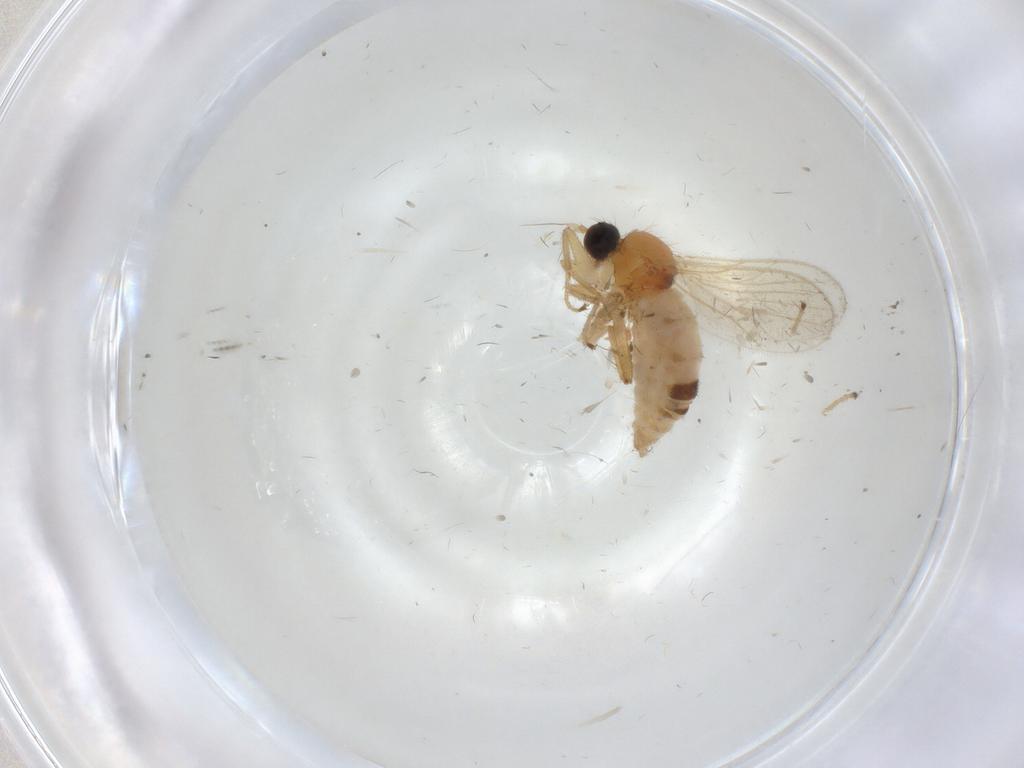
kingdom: Animalia
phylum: Arthropoda
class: Insecta
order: Diptera
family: Hybotidae
